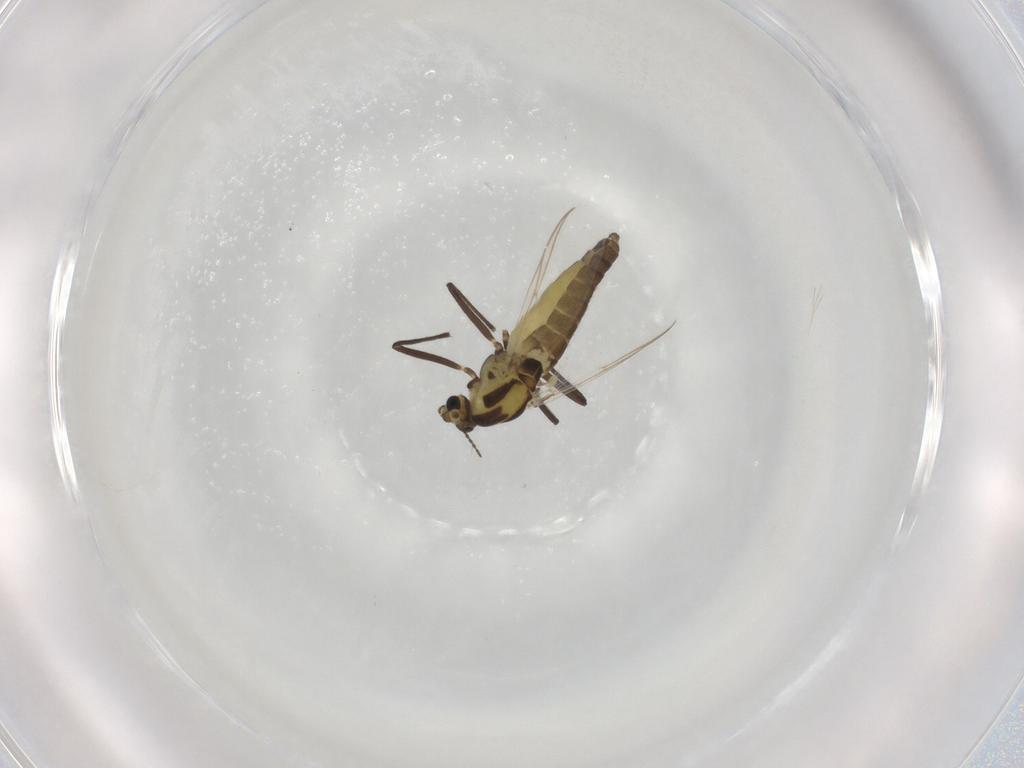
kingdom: Animalia
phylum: Arthropoda
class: Insecta
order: Diptera
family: Chironomidae
